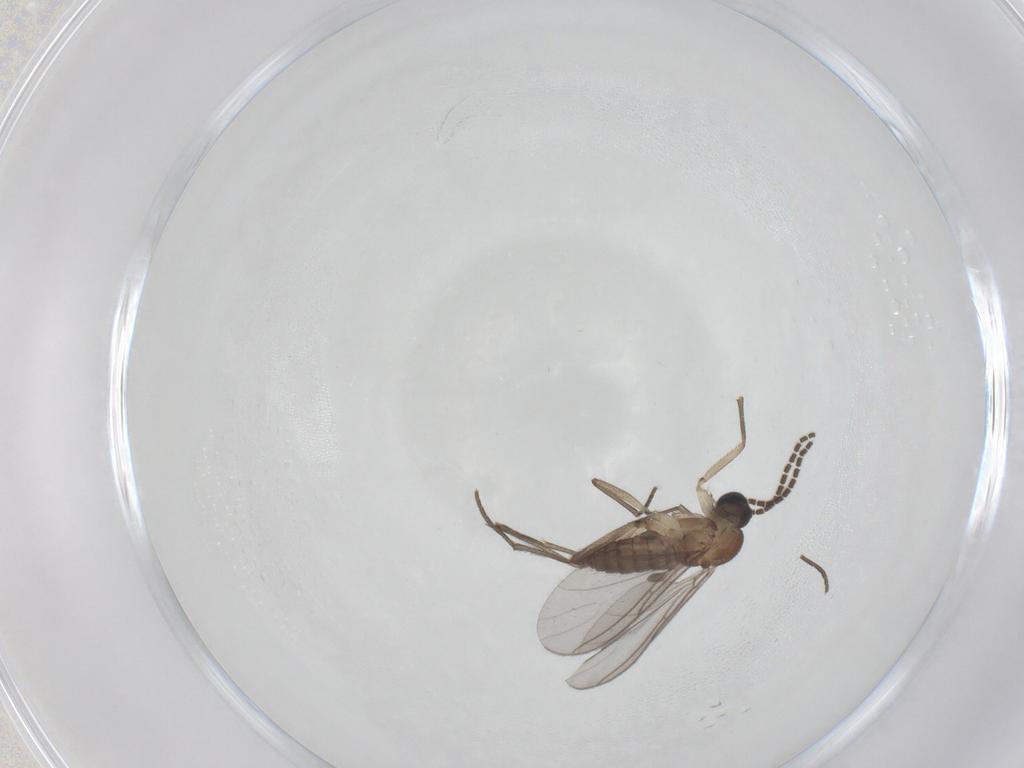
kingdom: Animalia
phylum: Arthropoda
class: Insecta
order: Diptera
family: Sciaridae
